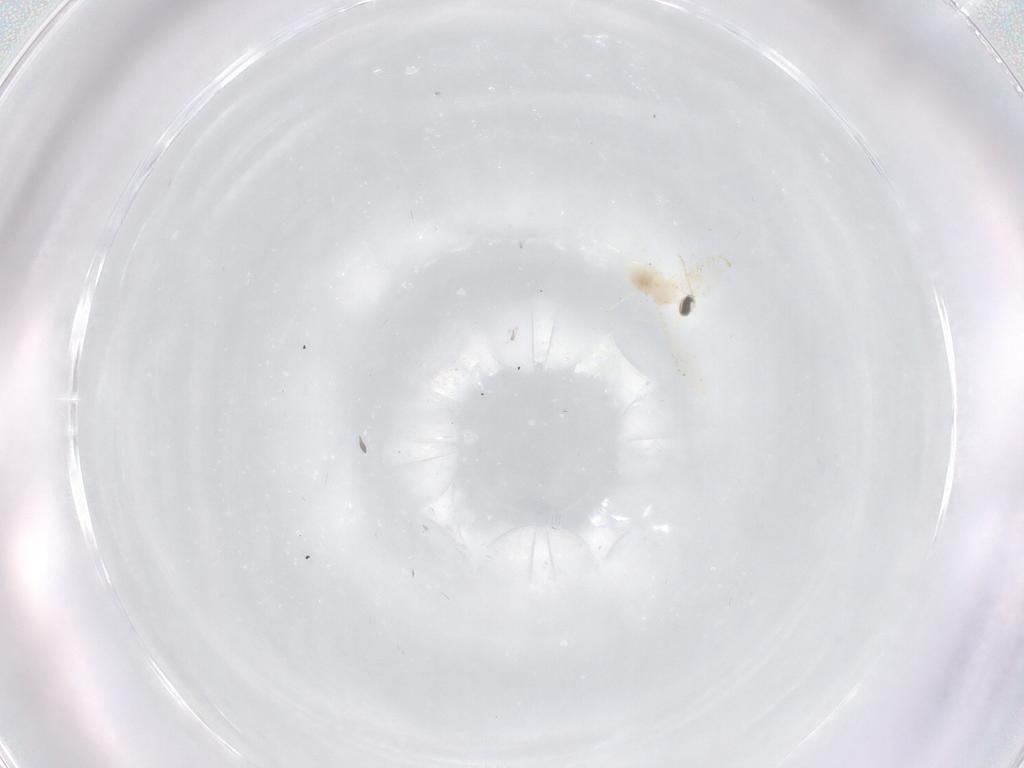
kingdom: Animalia
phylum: Arthropoda
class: Insecta
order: Diptera
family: Cecidomyiidae
